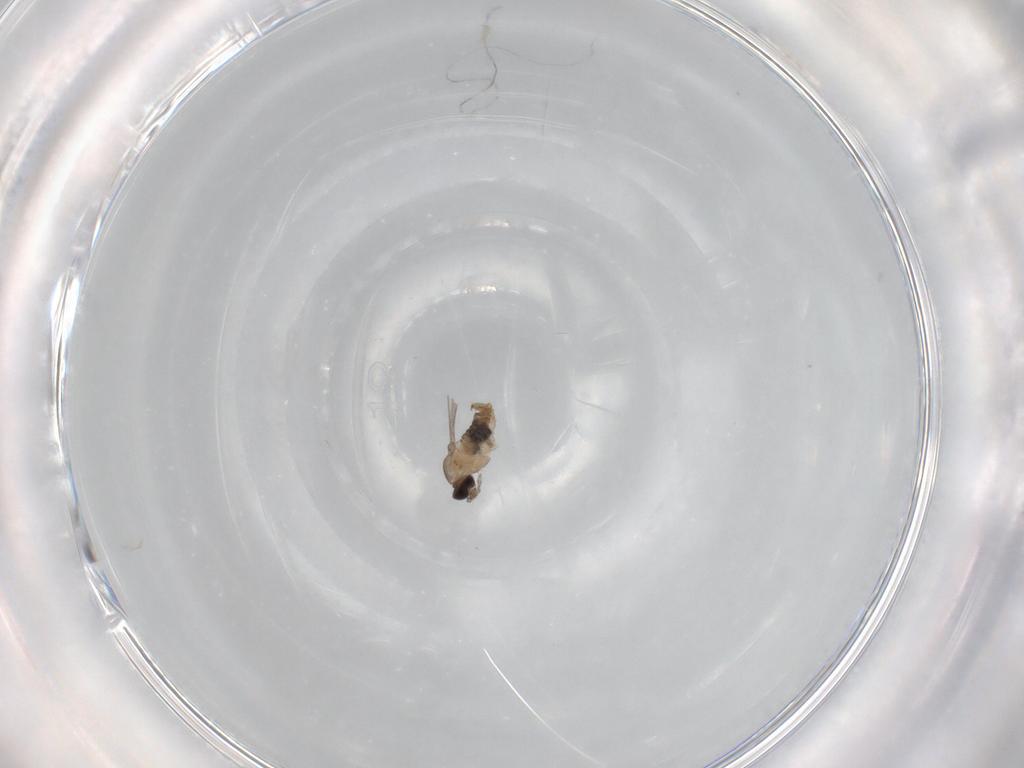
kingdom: Animalia
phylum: Arthropoda
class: Insecta
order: Diptera
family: Cecidomyiidae
